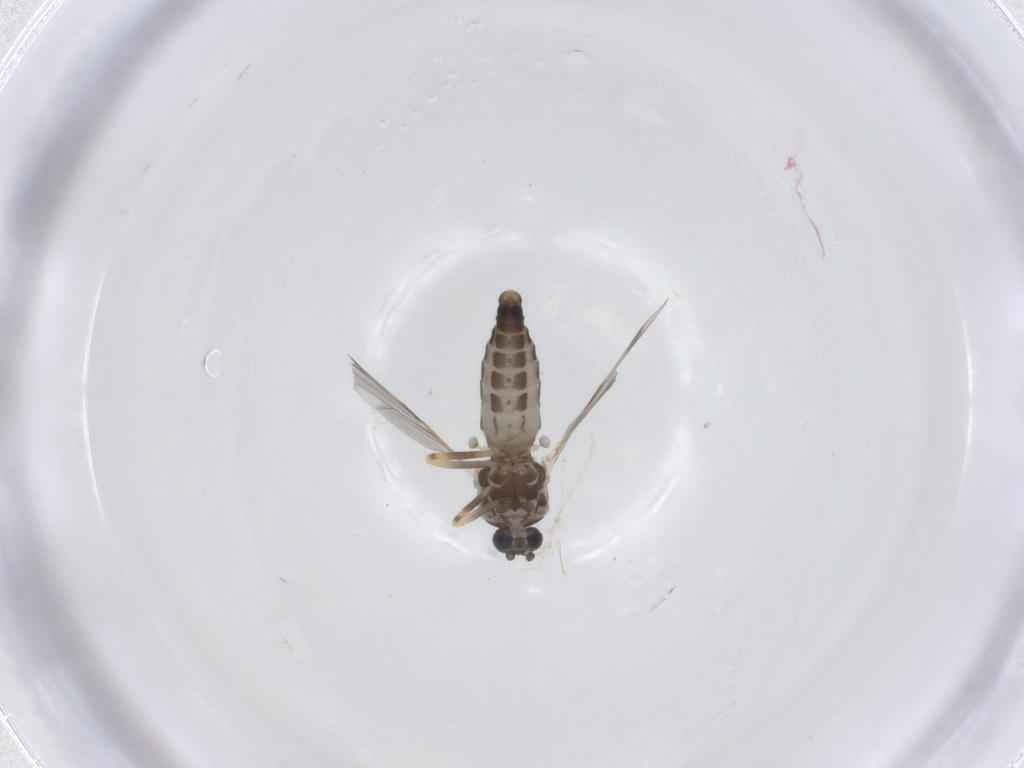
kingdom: Animalia
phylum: Arthropoda
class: Insecta
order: Diptera
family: Ceratopogonidae
